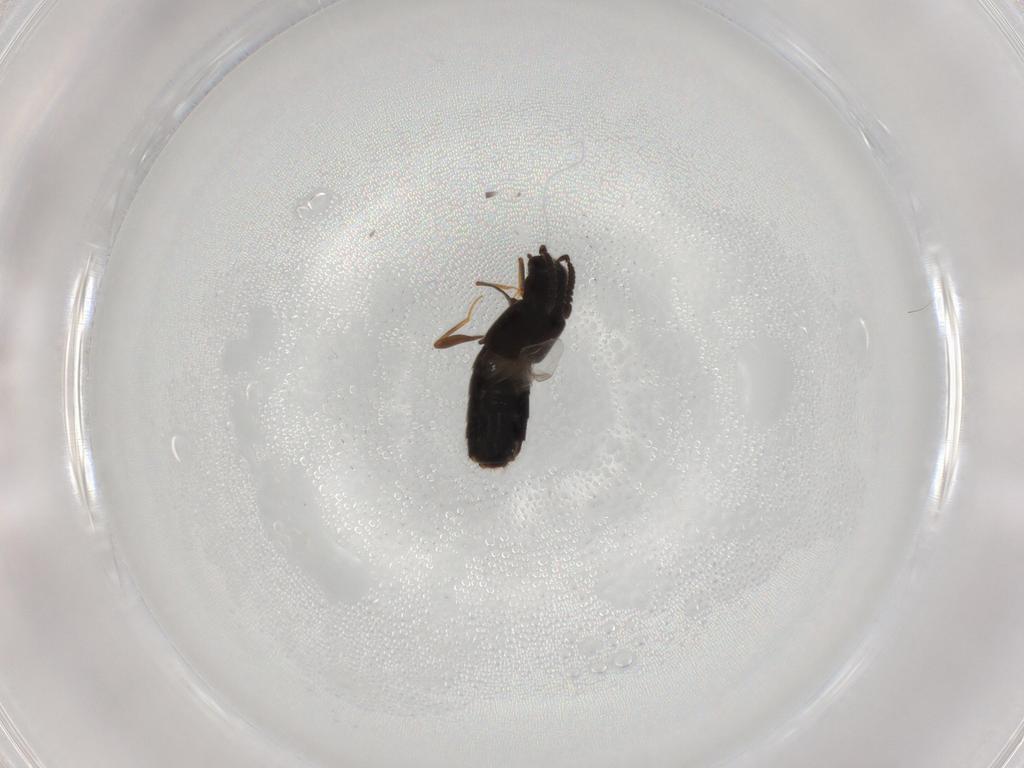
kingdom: Animalia
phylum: Arthropoda
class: Insecta
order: Coleoptera
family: Staphylinidae
